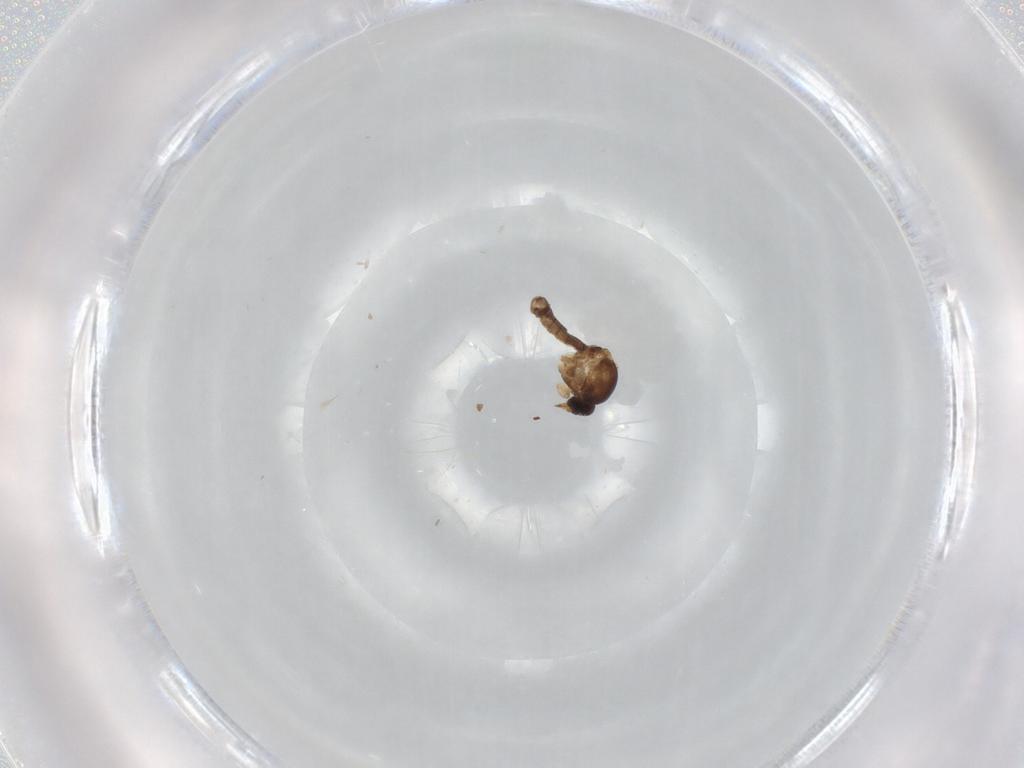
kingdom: Animalia
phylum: Arthropoda
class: Insecta
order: Diptera
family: Ceratopogonidae
